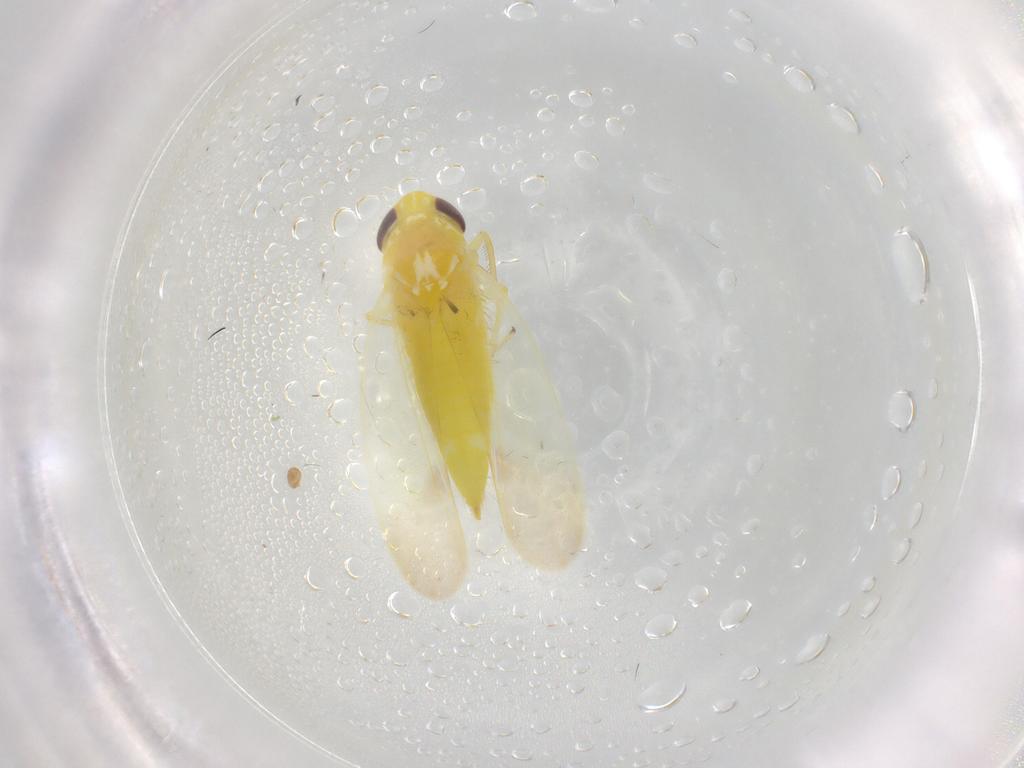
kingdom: Animalia
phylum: Arthropoda
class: Insecta
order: Hemiptera
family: Cicadellidae
